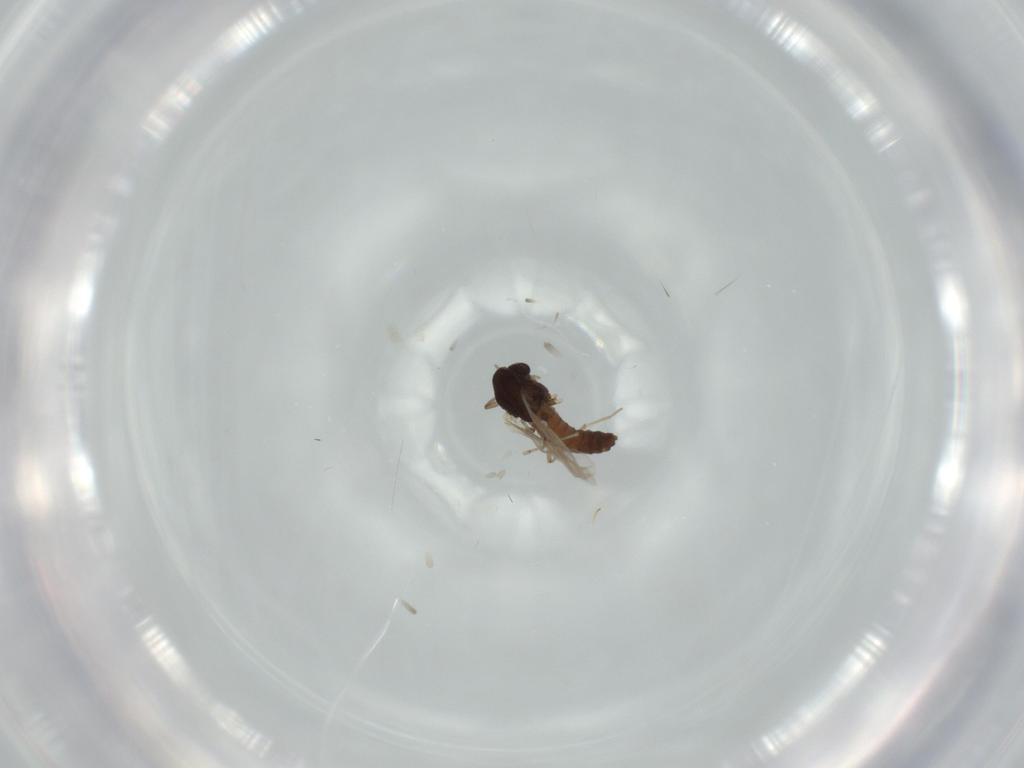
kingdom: Animalia
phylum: Arthropoda
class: Insecta
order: Diptera
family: Chironomidae
